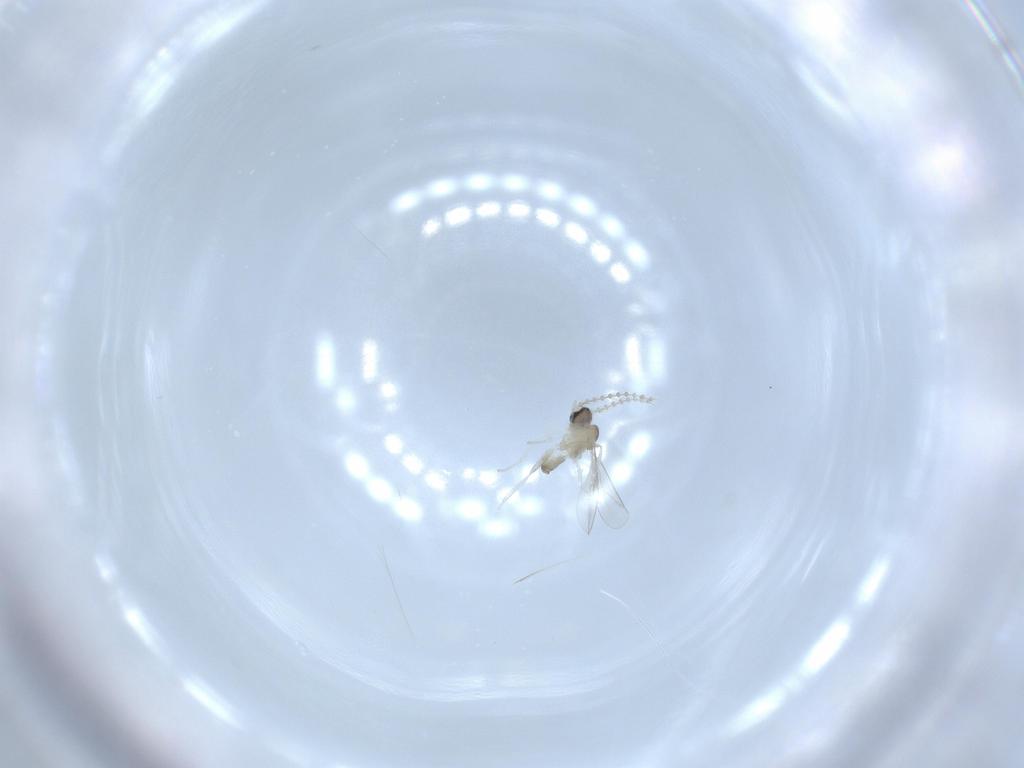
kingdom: Animalia
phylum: Arthropoda
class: Insecta
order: Diptera
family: Cecidomyiidae
